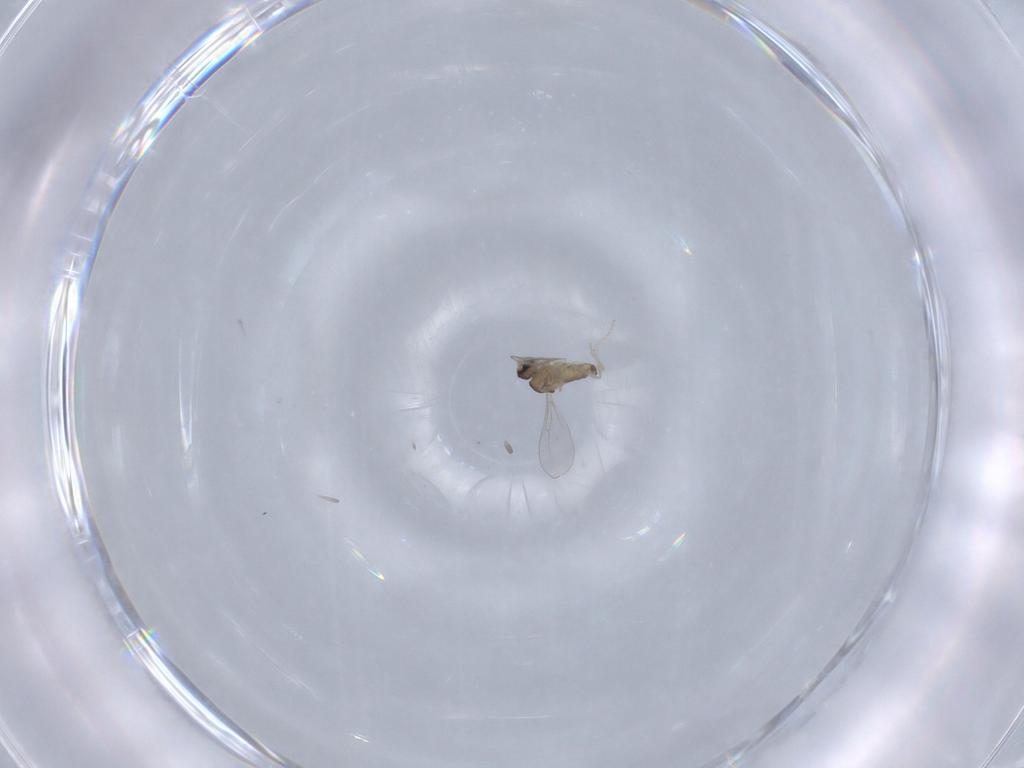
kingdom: Animalia
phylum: Arthropoda
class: Insecta
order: Diptera
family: Cecidomyiidae
